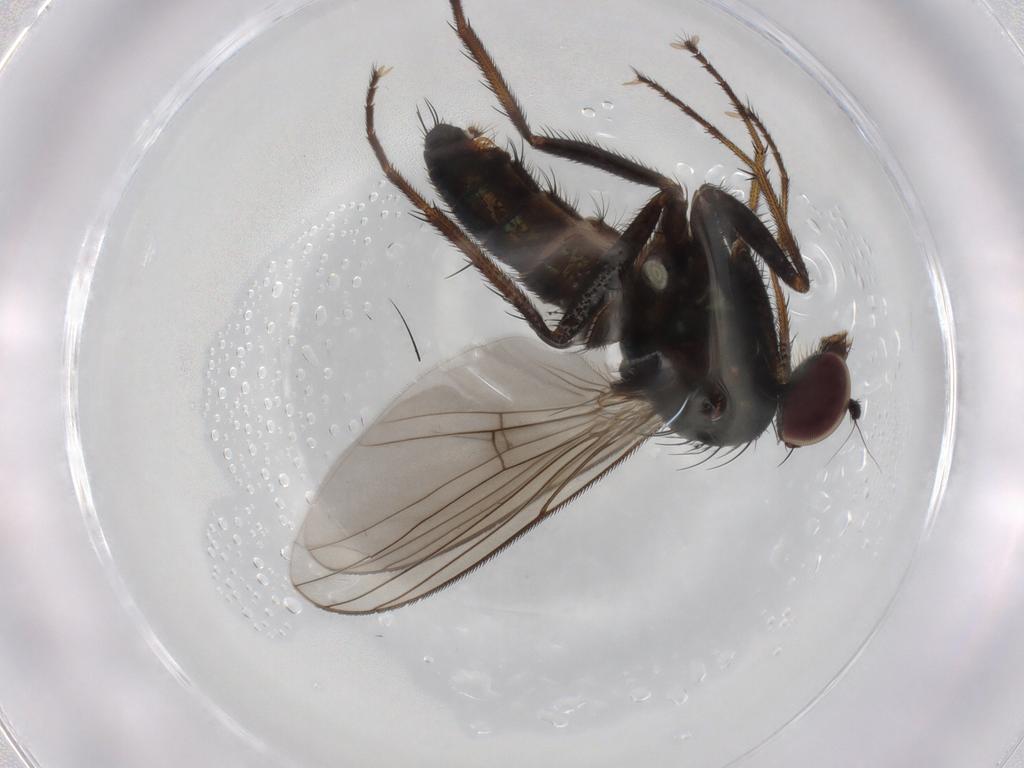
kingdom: Animalia
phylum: Arthropoda
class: Insecta
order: Diptera
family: Dolichopodidae
